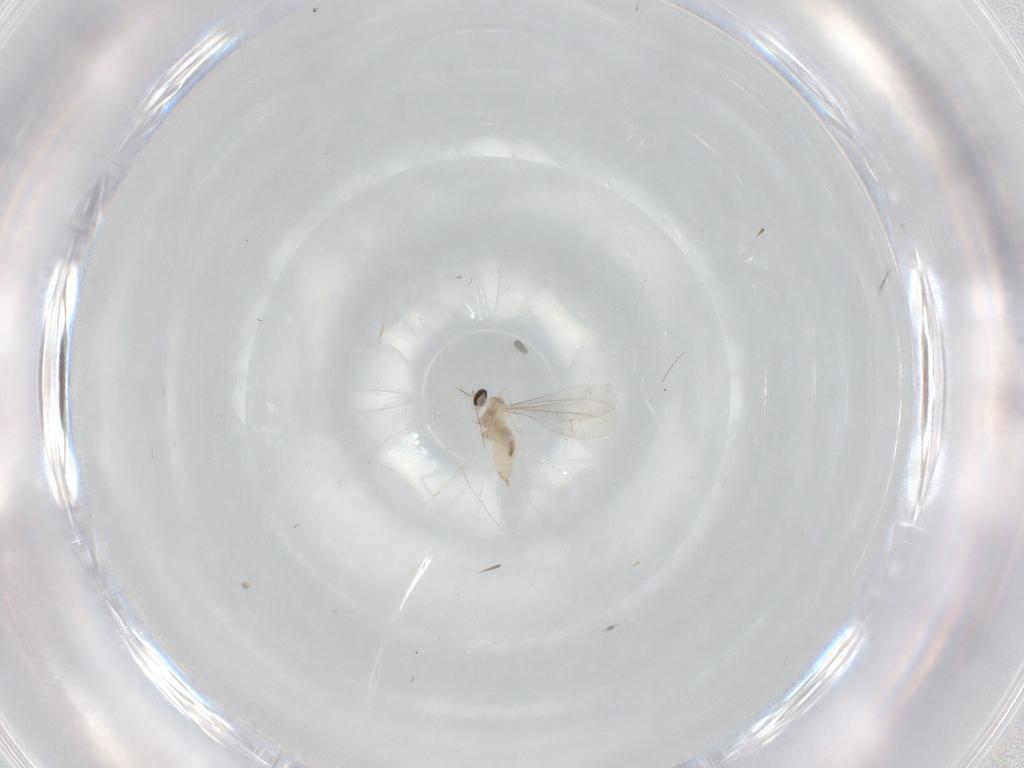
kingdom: Animalia
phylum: Arthropoda
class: Insecta
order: Diptera
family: Cecidomyiidae
